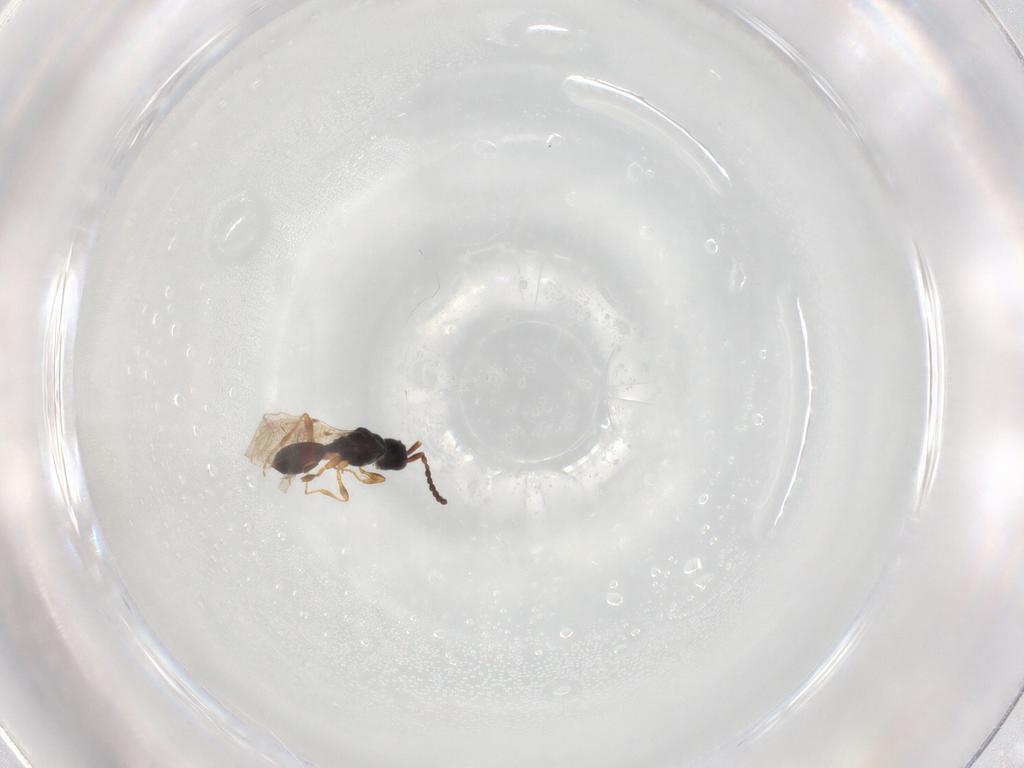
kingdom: Animalia
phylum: Arthropoda
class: Insecta
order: Hymenoptera
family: Diapriidae
